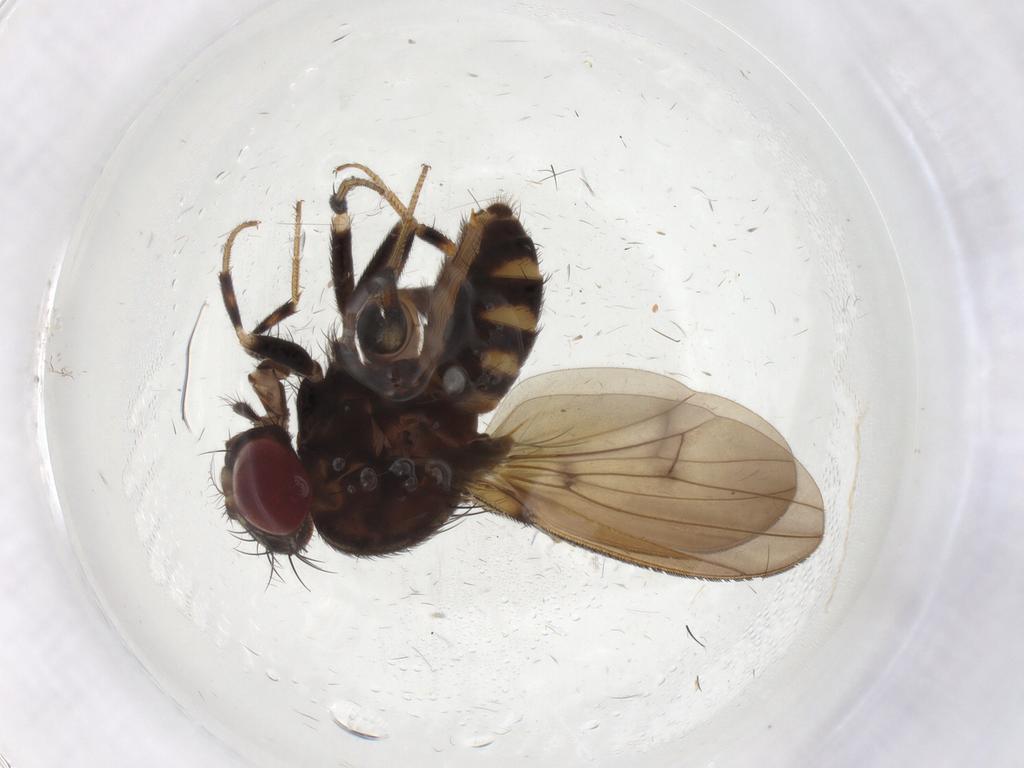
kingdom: Animalia
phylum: Arthropoda
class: Insecta
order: Diptera
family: Drosophilidae
